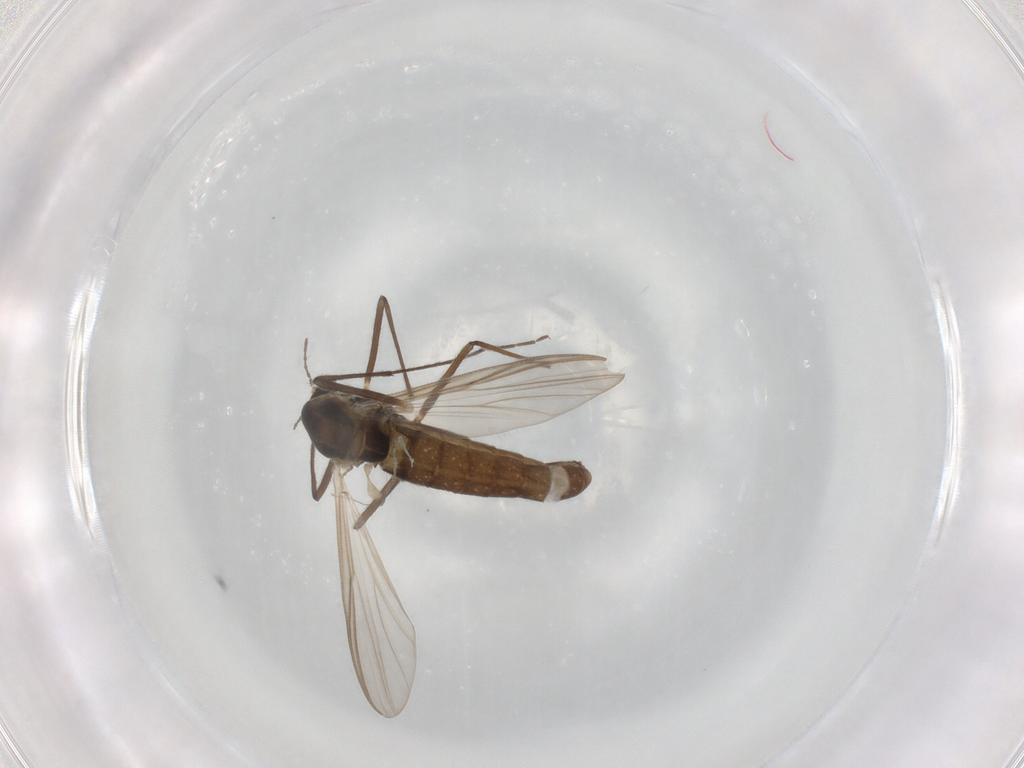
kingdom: Animalia
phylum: Arthropoda
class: Insecta
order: Diptera
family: Chironomidae
